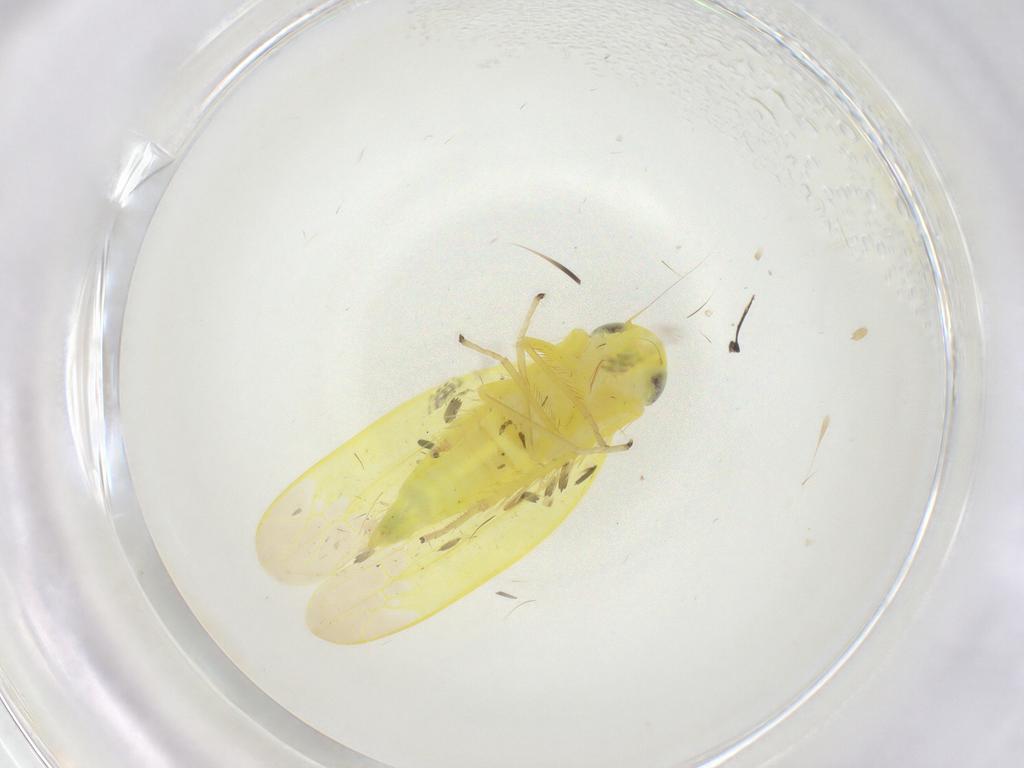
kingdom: Animalia
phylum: Arthropoda
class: Insecta
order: Hemiptera
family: Cicadellidae
